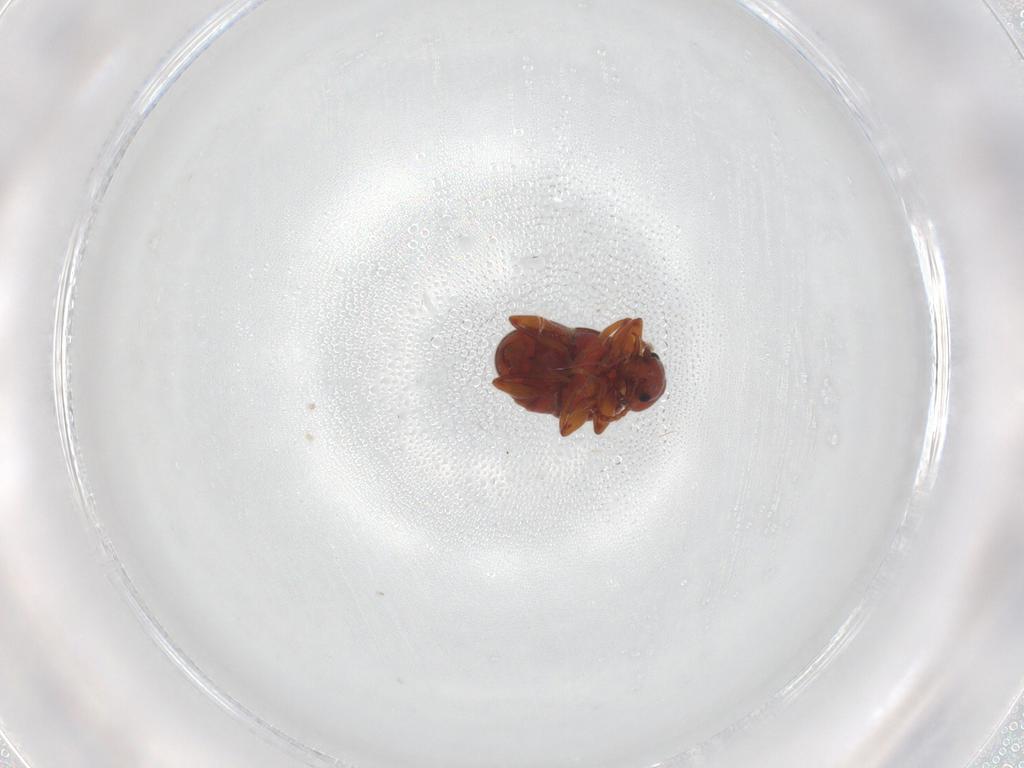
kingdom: Animalia
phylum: Arthropoda
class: Insecta
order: Coleoptera
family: Staphylinidae
